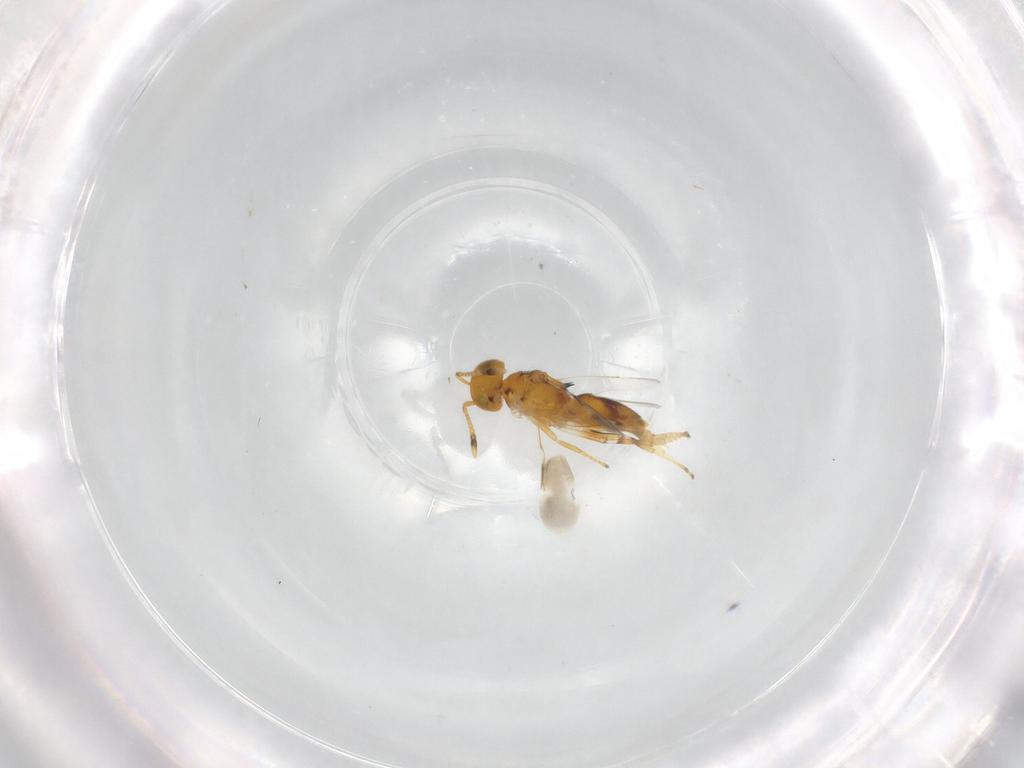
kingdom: Animalia
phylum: Arthropoda
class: Insecta
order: Hymenoptera
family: Encyrtidae
